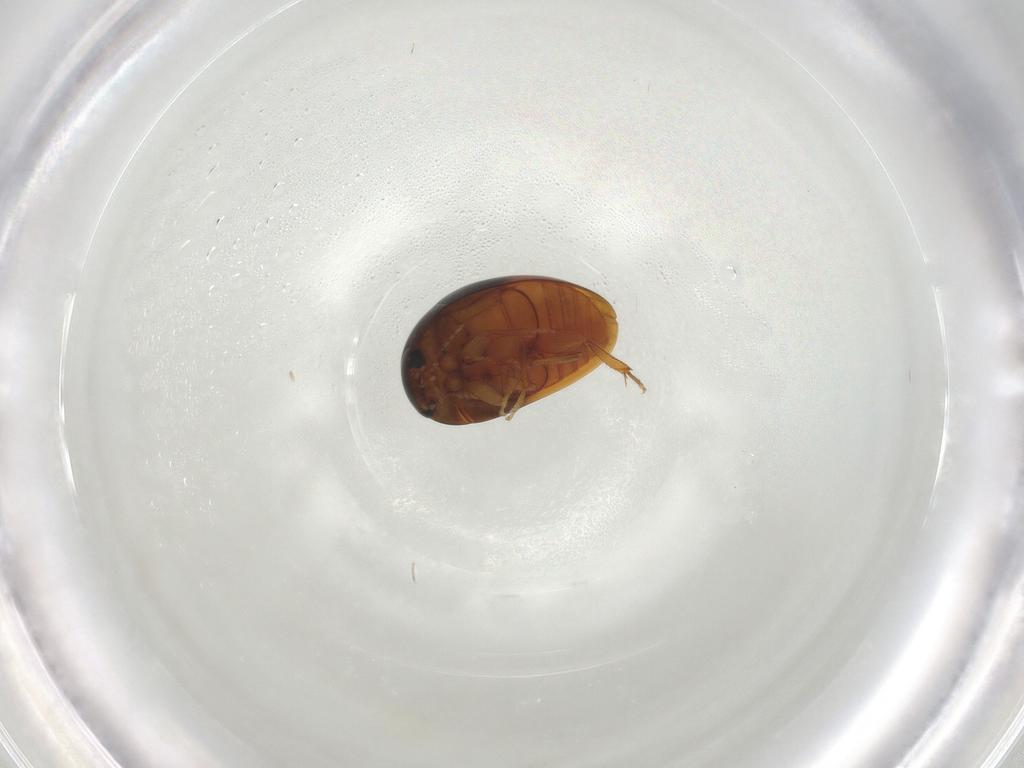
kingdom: Animalia
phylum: Arthropoda
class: Insecta
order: Coleoptera
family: Phalacridae
